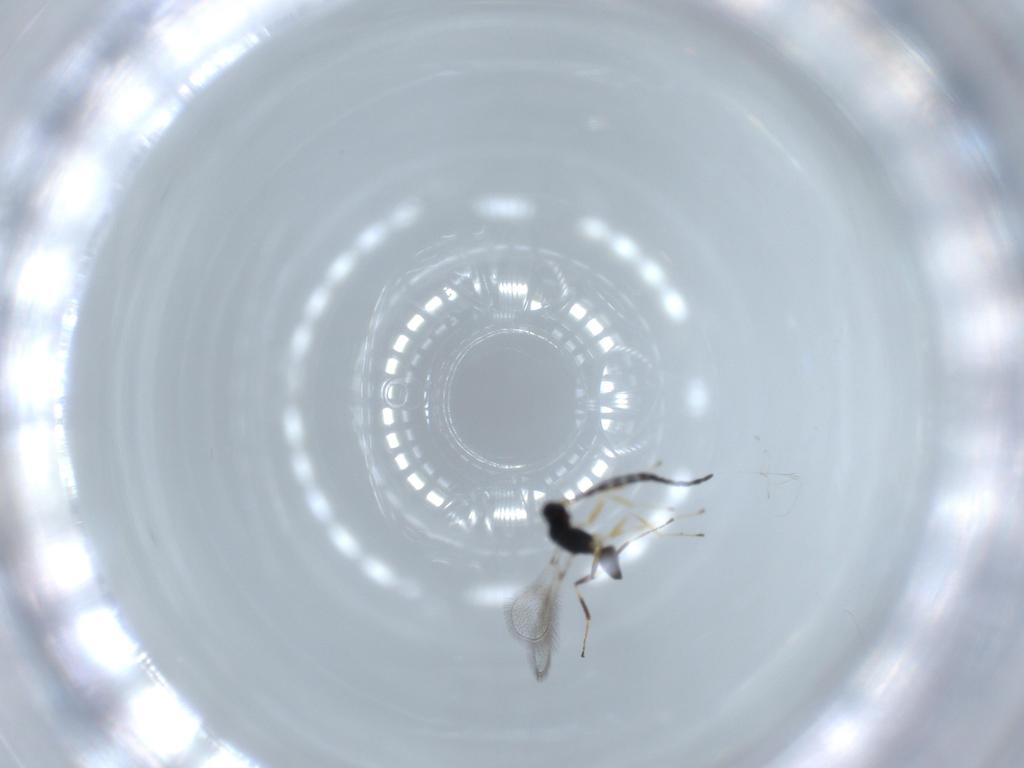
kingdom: Animalia
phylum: Arthropoda
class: Insecta
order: Hymenoptera
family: Mymaridae
